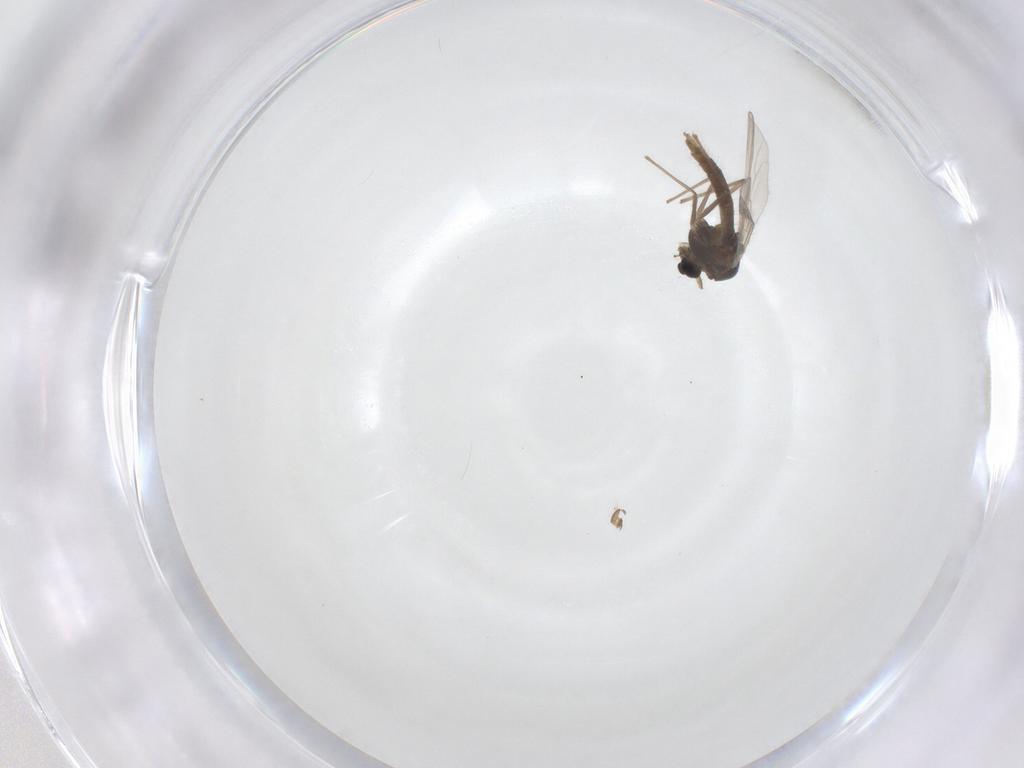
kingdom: Animalia
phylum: Arthropoda
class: Insecta
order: Diptera
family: Chironomidae
